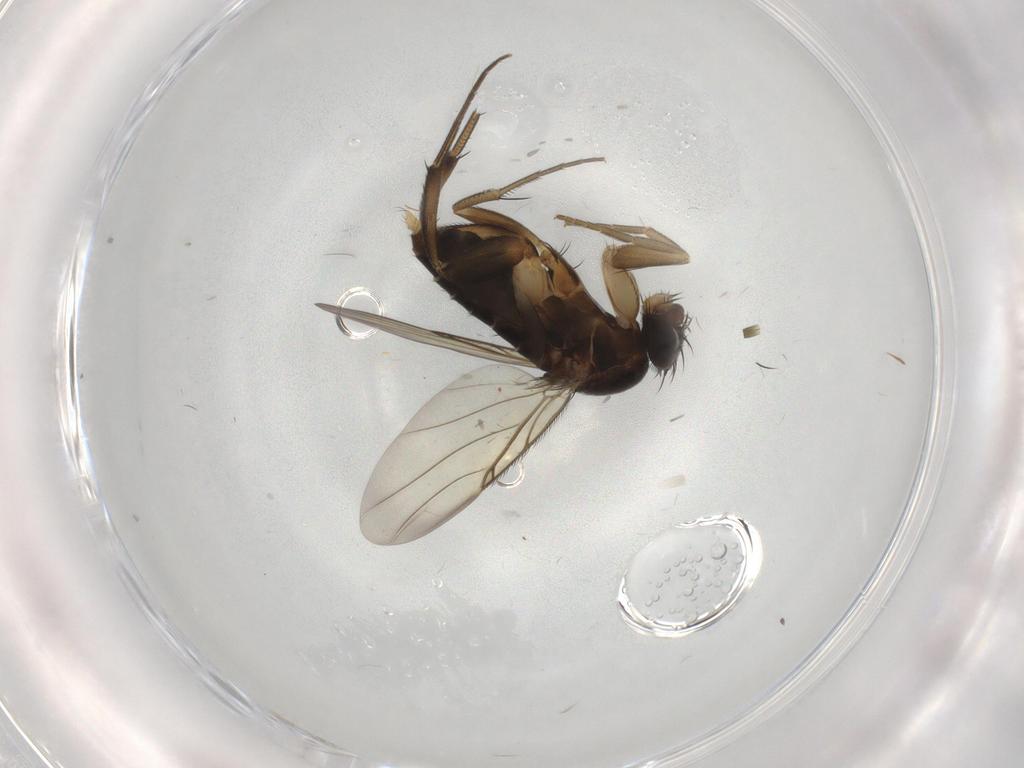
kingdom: Animalia
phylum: Arthropoda
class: Insecta
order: Diptera
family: Phoridae
